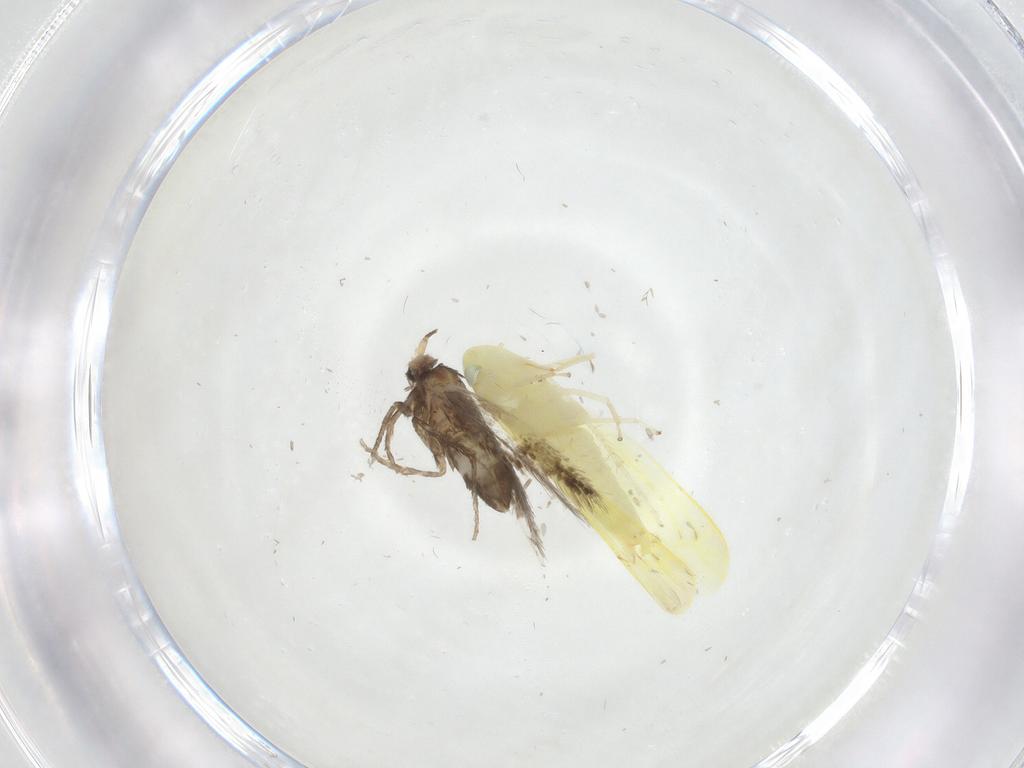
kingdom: Animalia
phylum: Arthropoda
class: Insecta
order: Hemiptera
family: Cicadellidae
